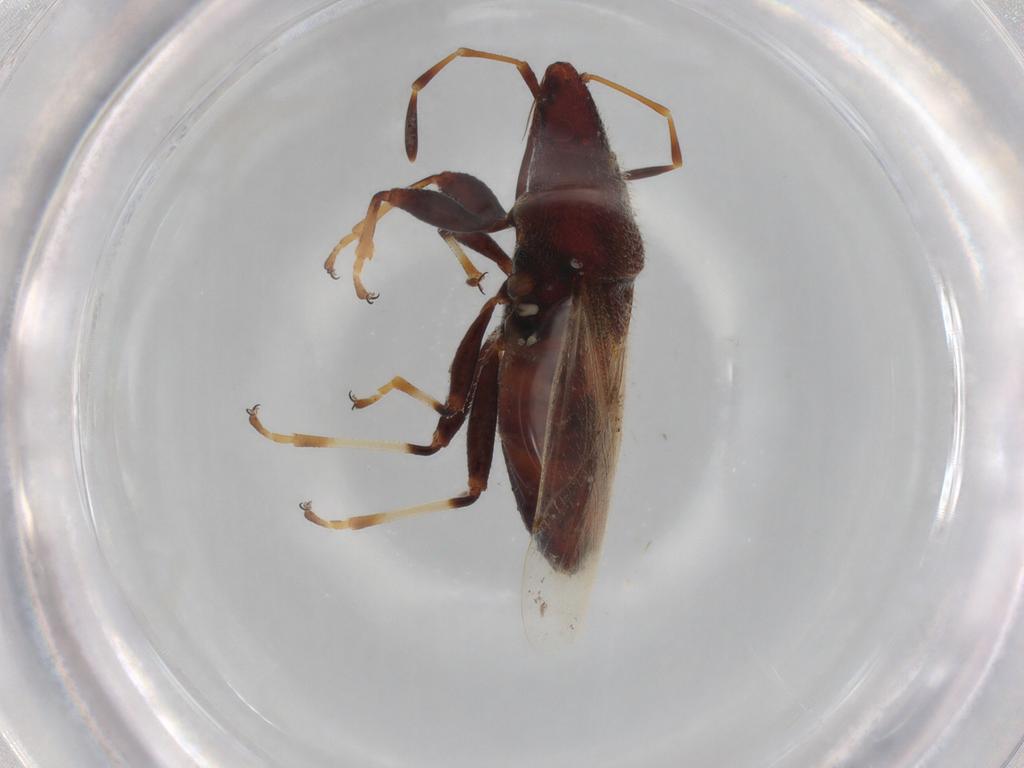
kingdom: Animalia
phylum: Arthropoda
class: Insecta
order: Hemiptera
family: Oxycarenidae
